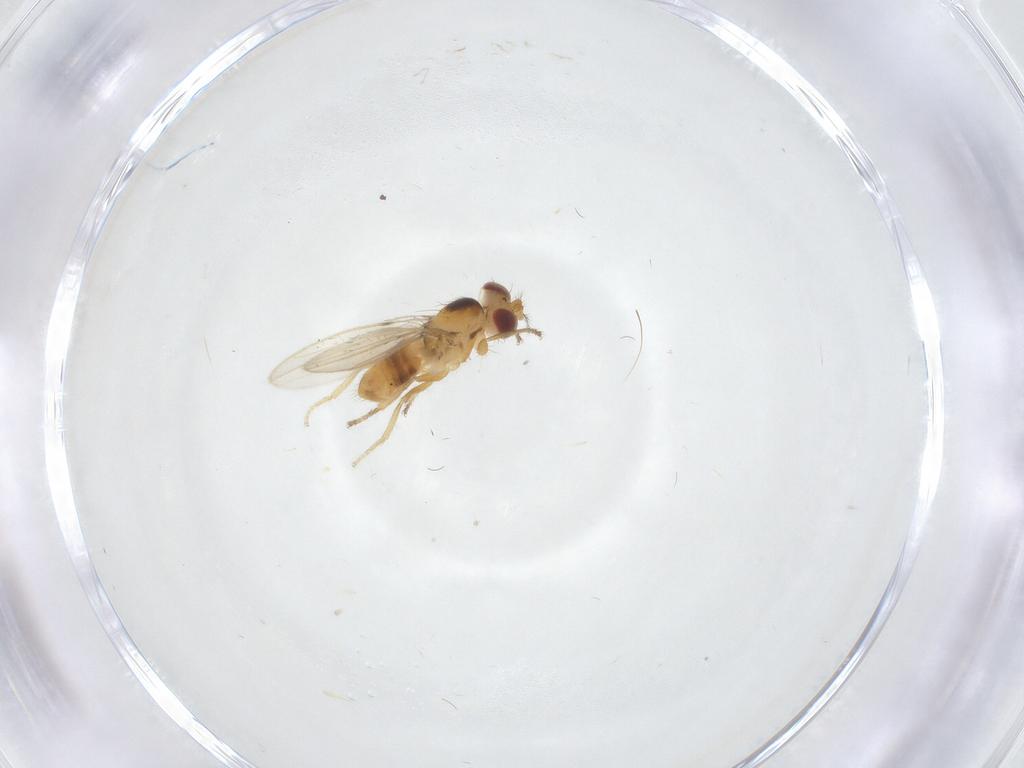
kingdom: Animalia
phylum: Arthropoda
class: Insecta
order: Diptera
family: Periscelididae
